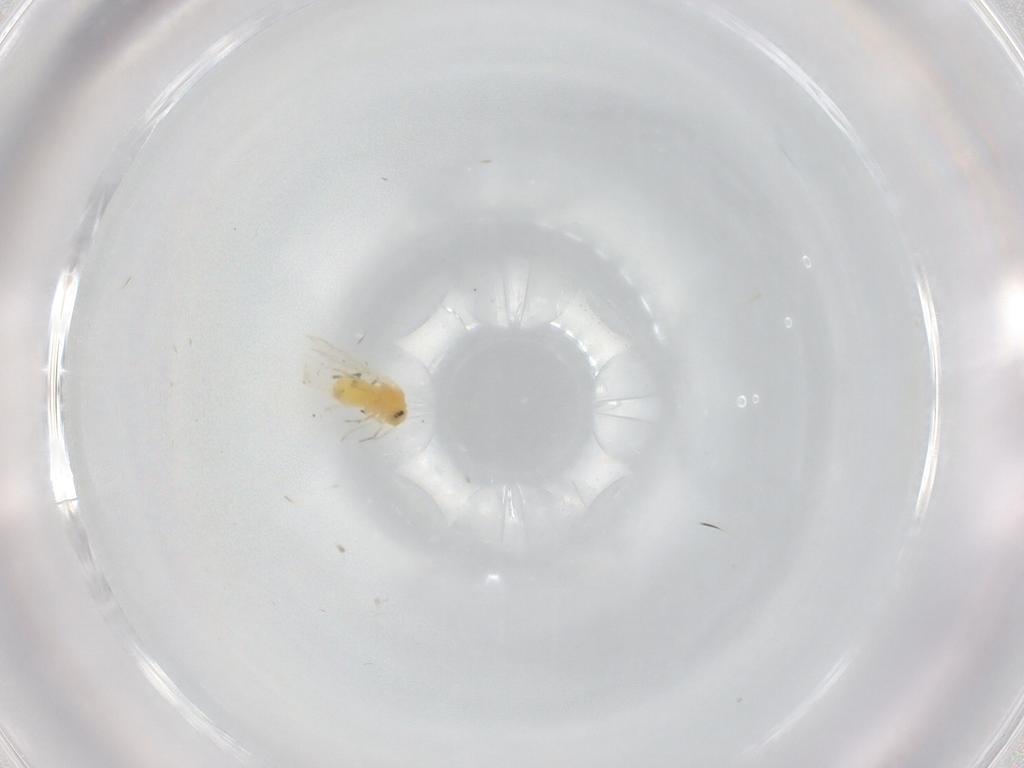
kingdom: Animalia
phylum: Arthropoda
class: Insecta
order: Hemiptera
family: Aleyrodidae
